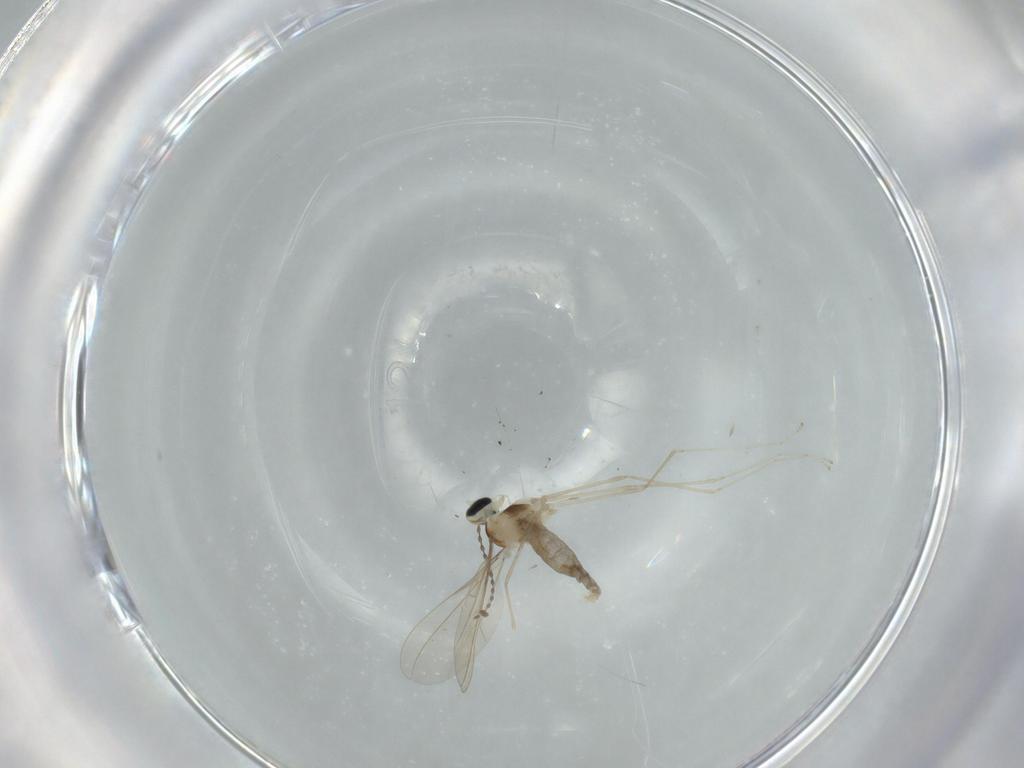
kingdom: Animalia
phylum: Arthropoda
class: Insecta
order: Diptera
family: Cecidomyiidae
